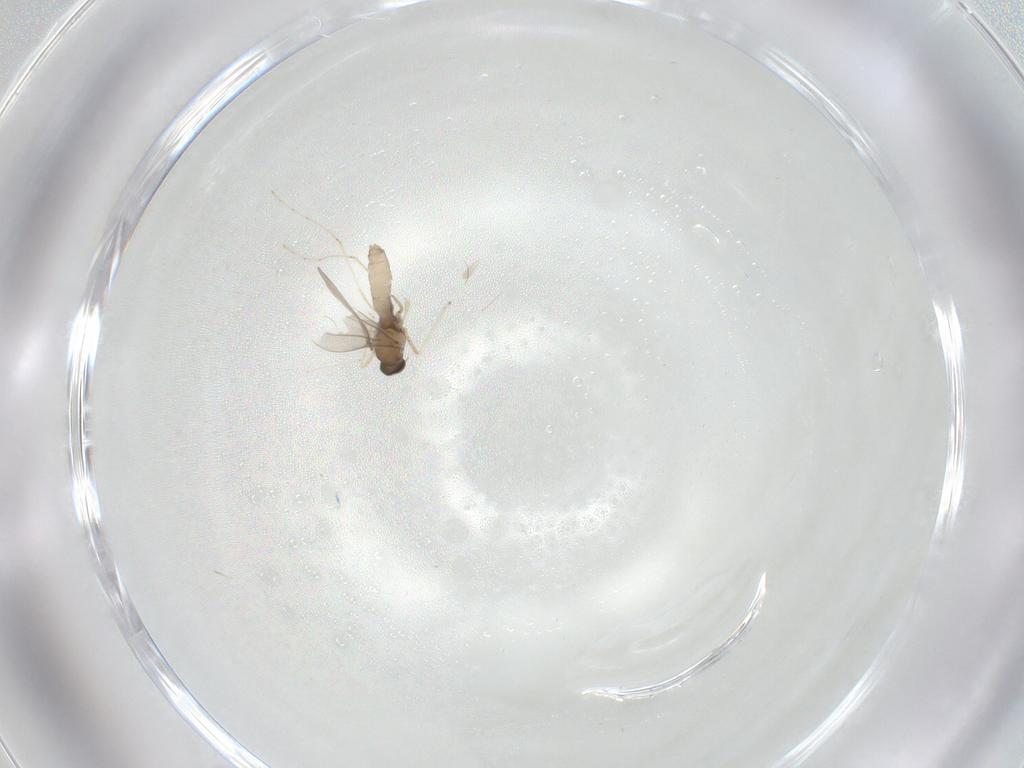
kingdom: Animalia
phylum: Arthropoda
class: Insecta
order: Diptera
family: Cecidomyiidae
